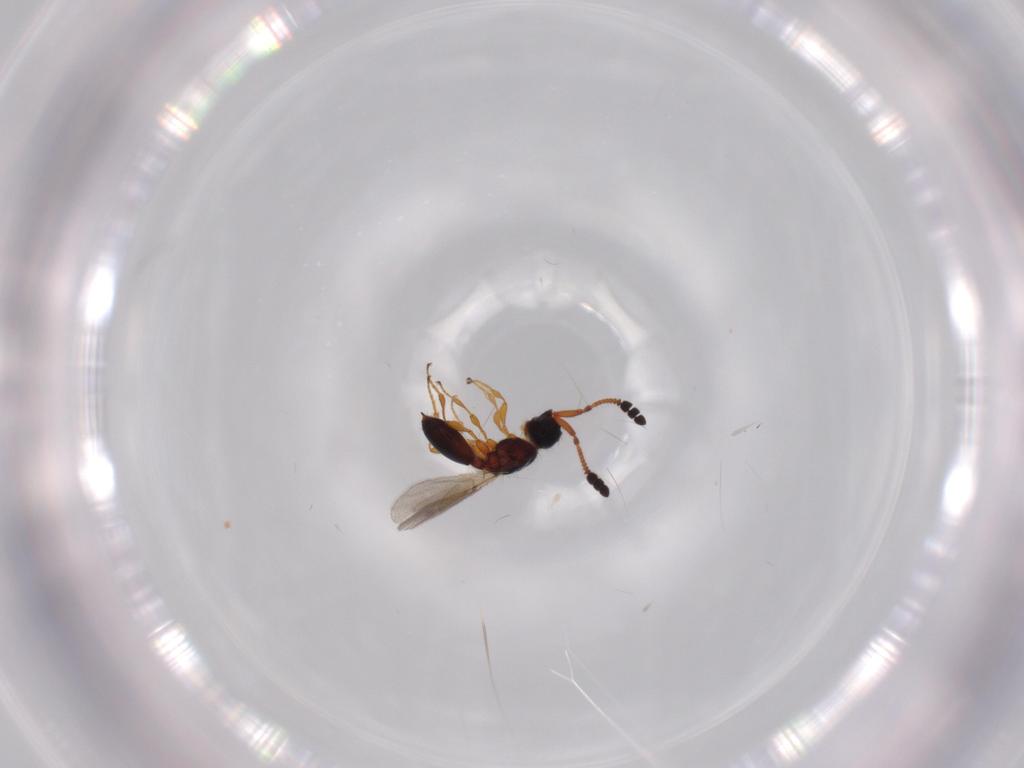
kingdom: Animalia
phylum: Arthropoda
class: Insecta
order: Hymenoptera
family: Diapriidae
